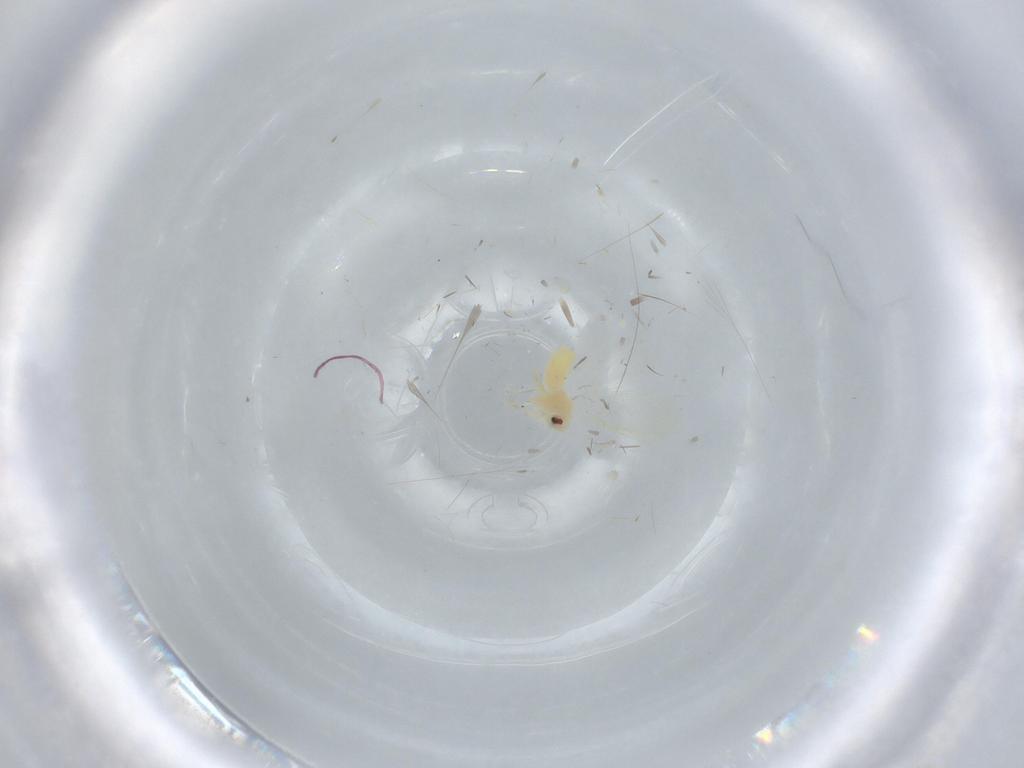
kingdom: Animalia
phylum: Arthropoda
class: Insecta
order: Hemiptera
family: Aleyrodidae
